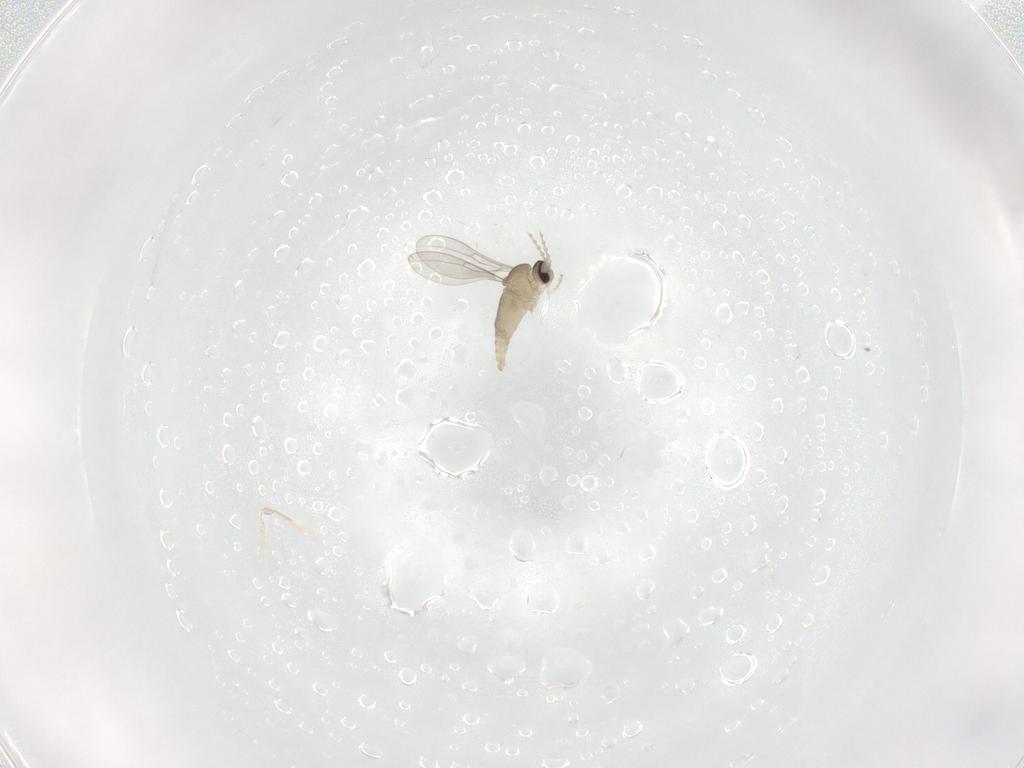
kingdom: Animalia
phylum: Arthropoda
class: Insecta
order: Diptera
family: Cecidomyiidae
